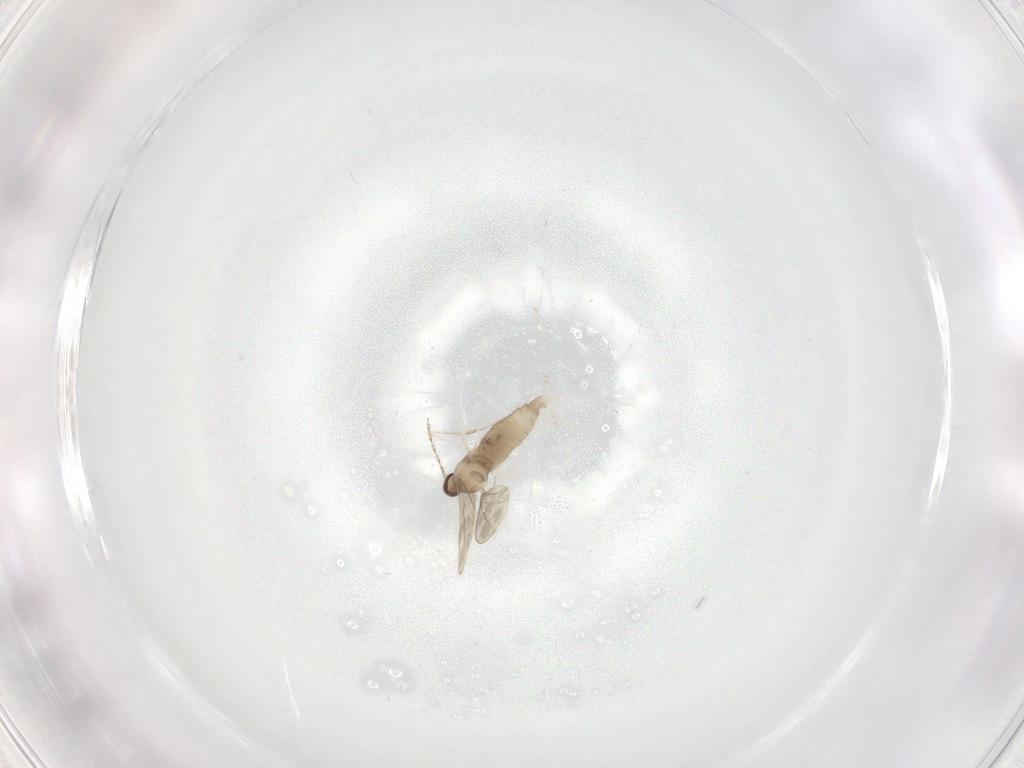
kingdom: Animalia
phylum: Arthropoda
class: Insecta
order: Diptera
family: Cecidomyiidae
